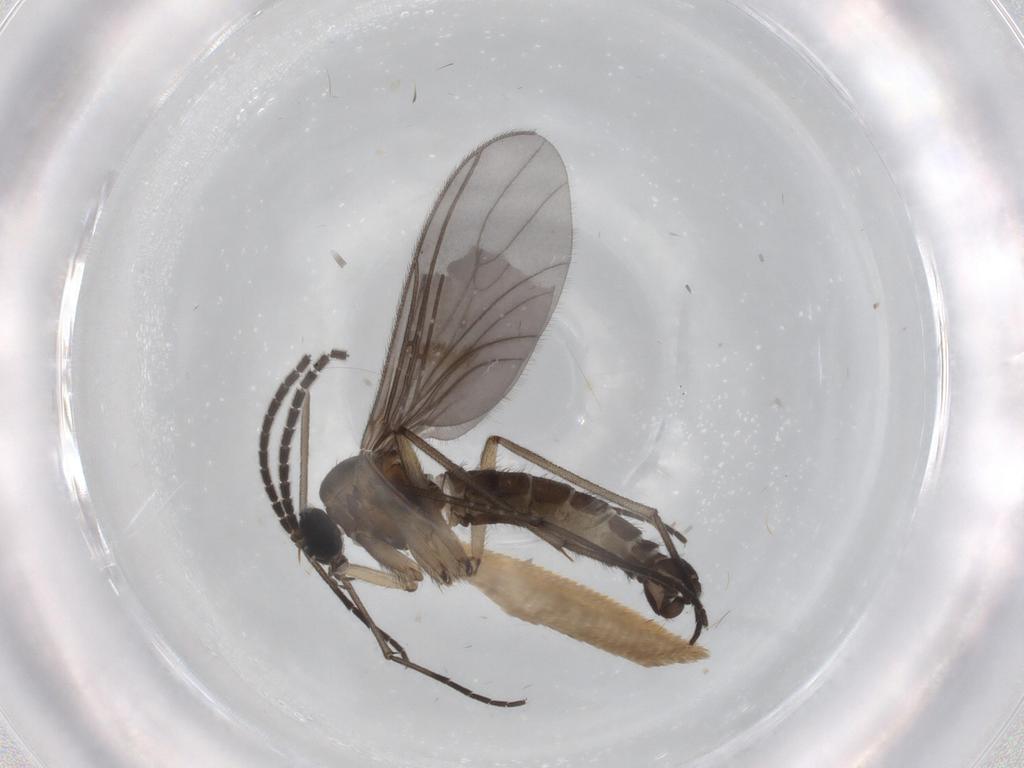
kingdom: Animalia
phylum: Arthropoda
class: Insecta
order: Diptera
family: Sciaridae
